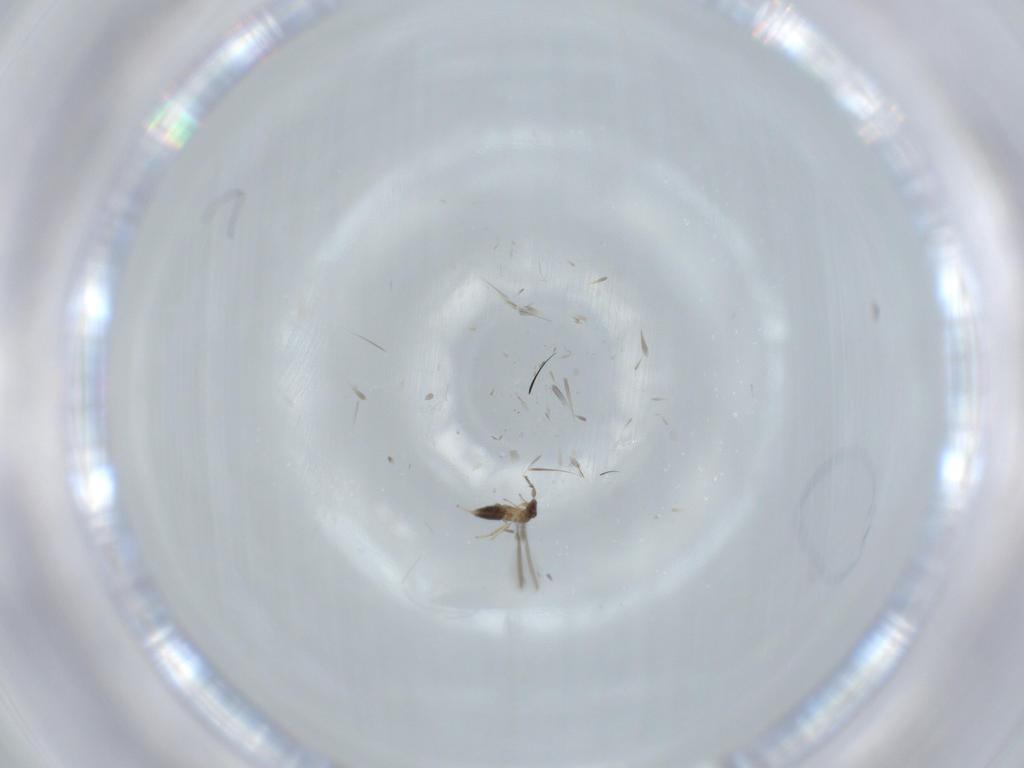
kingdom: Animalia
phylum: Arthropoda
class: Insecta
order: Hymenoptera
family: Mymaridae
